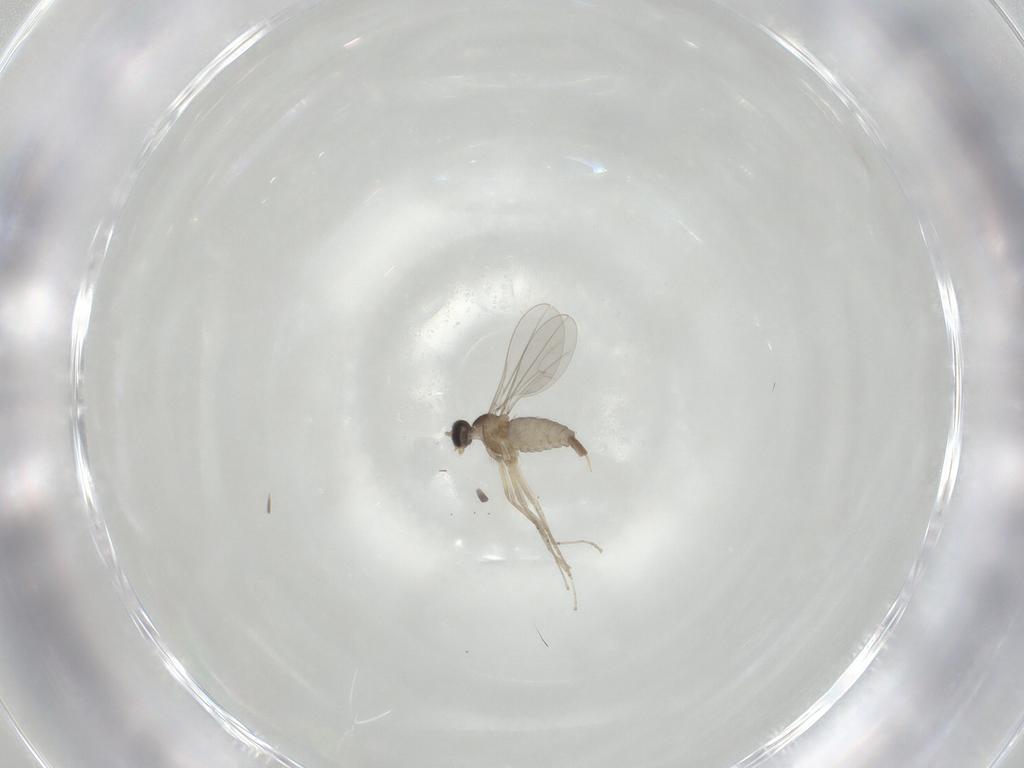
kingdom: Animalia
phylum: Arthropoda
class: Insecta
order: Diptera
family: Cecidomyiidae
